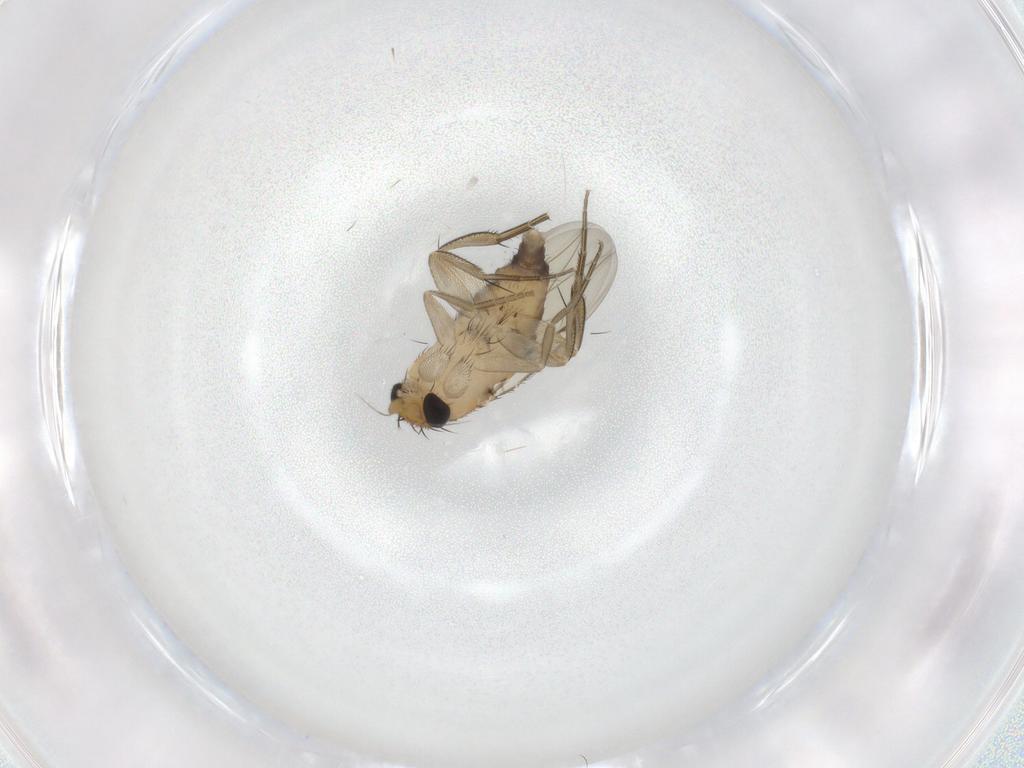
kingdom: Animalia
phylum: Arthropoda
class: Insecta
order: Diptera
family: Phoridae
